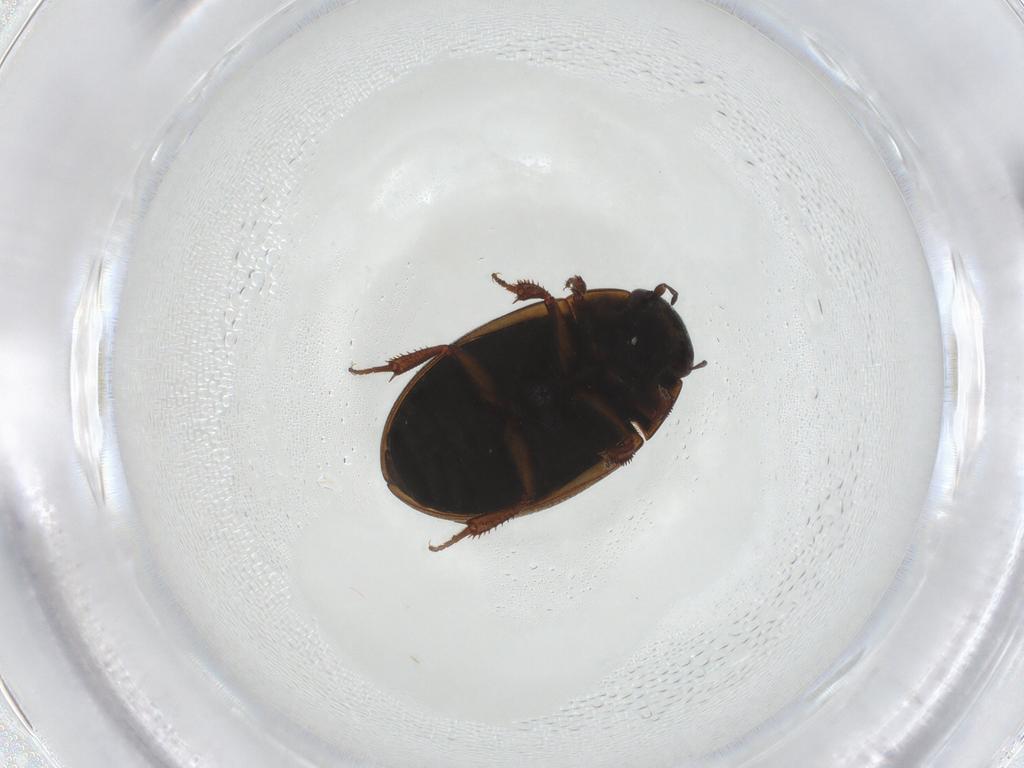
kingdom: Animalia
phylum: Arthropoda
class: Insecta
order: Coleoptera
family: Hydrophilidae
